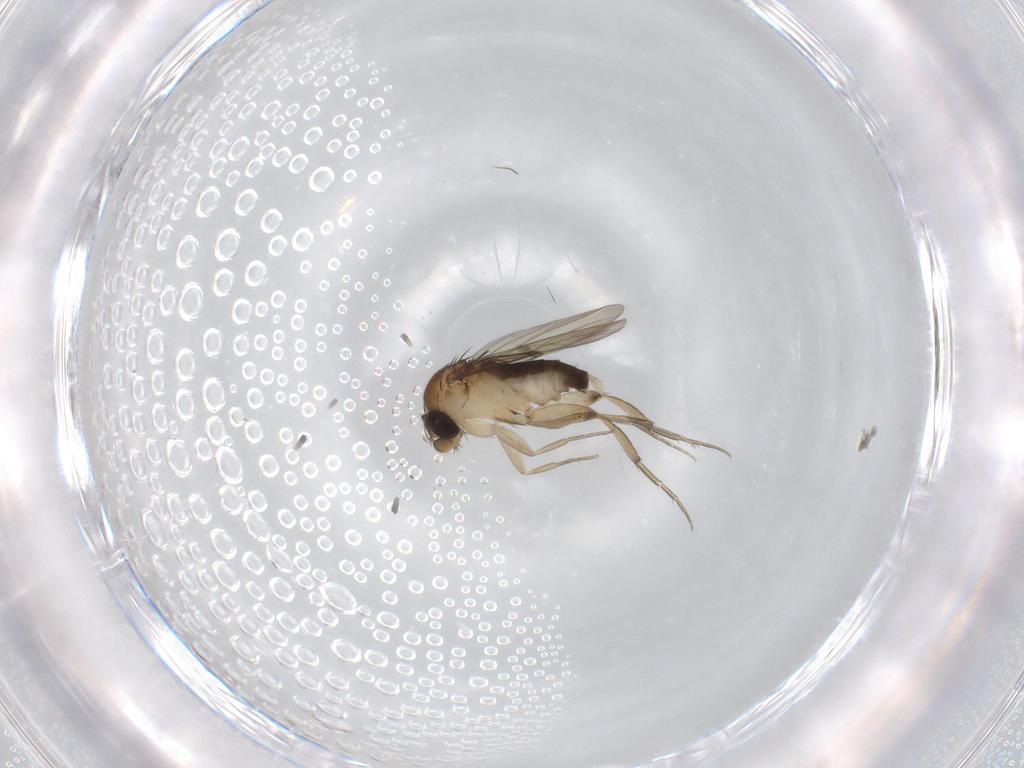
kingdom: Animalia
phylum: Arthropoda
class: Insecta
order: Diptera
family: Phoridae
